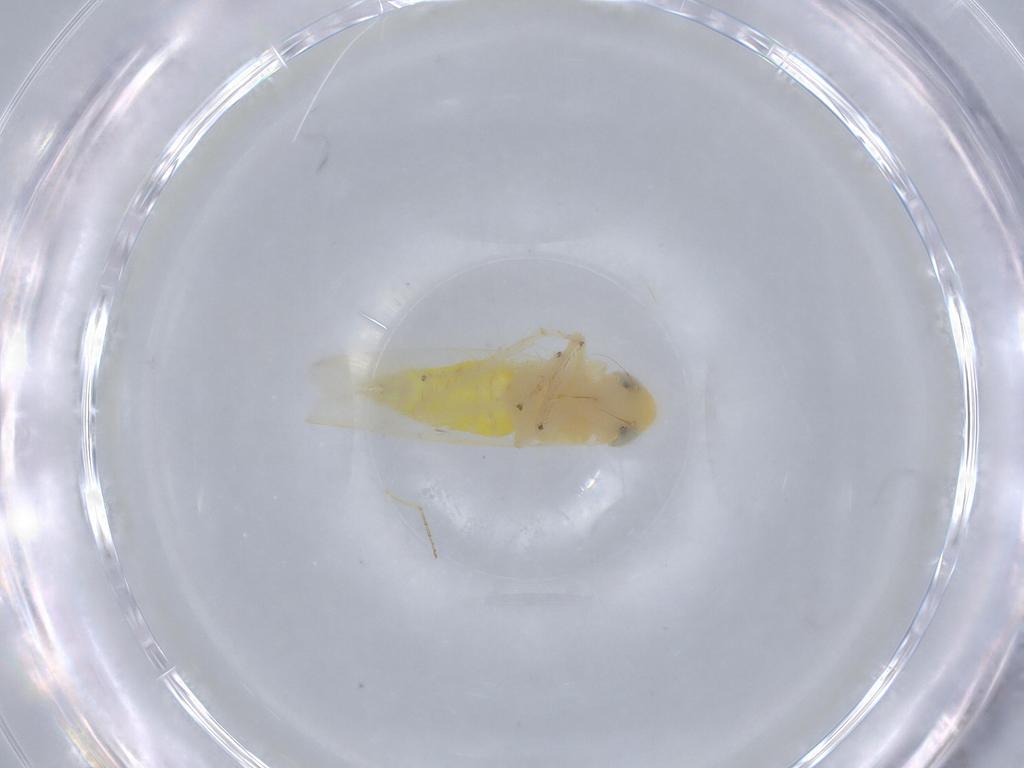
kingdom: Animalia
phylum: Arthropoda
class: Insecta
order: Hemiptera
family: Cicadellidae
